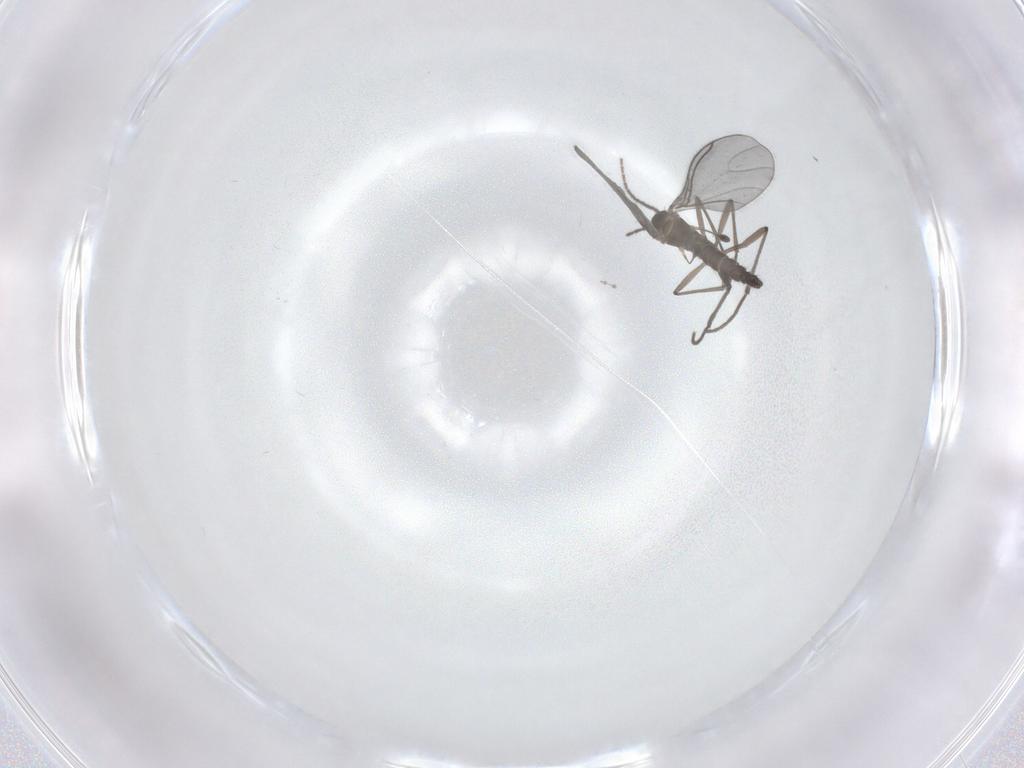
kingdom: Animalia
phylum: Arthropoda
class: Insecta
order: Diptera
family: Sciaridae
